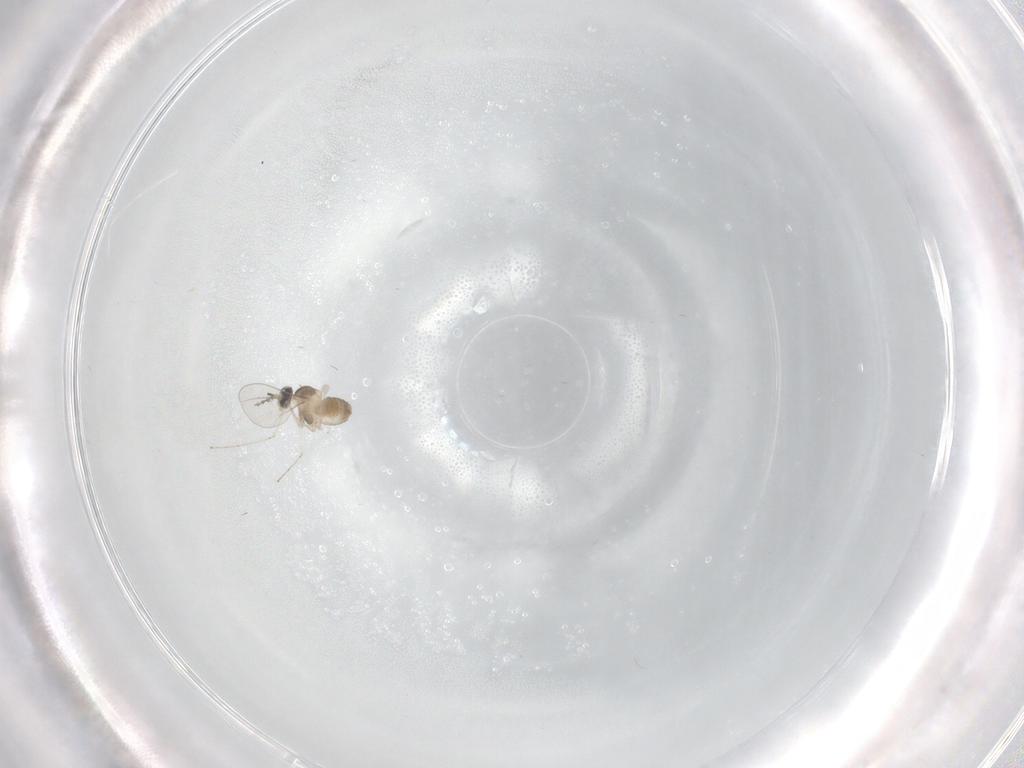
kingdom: Animalia
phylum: Arthropoda
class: Insecta
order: Diptera
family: Cecidomyiidae
